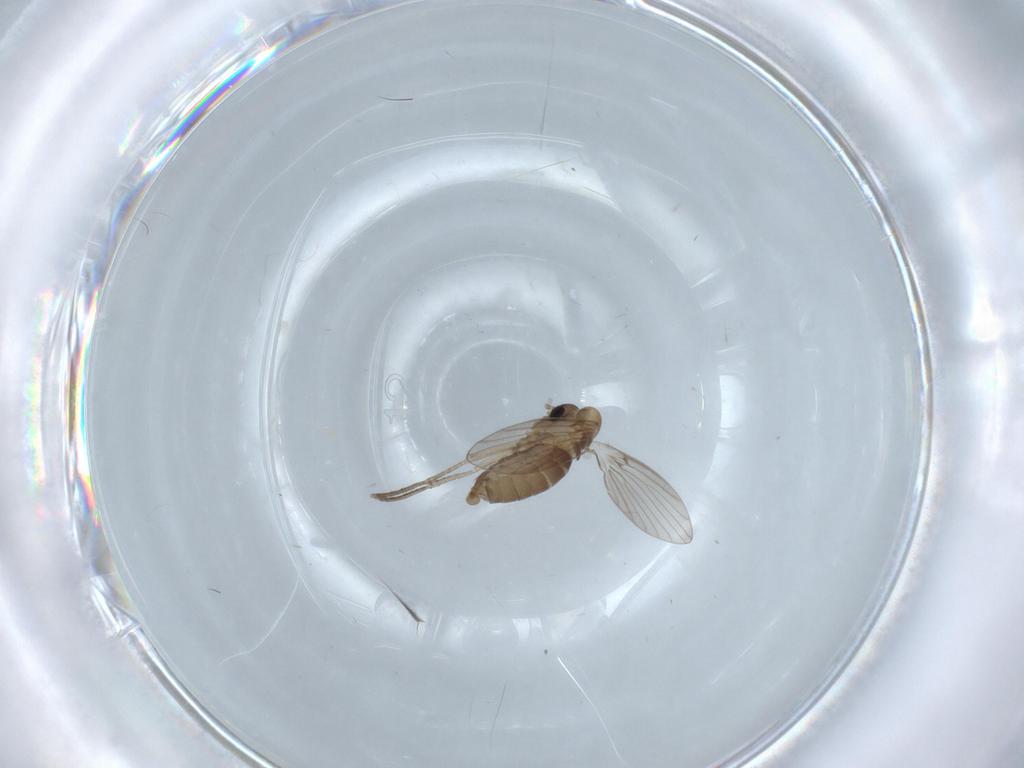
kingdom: Animalia
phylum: Arthropoda
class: Insecta
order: Diptera
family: Psychodidae
